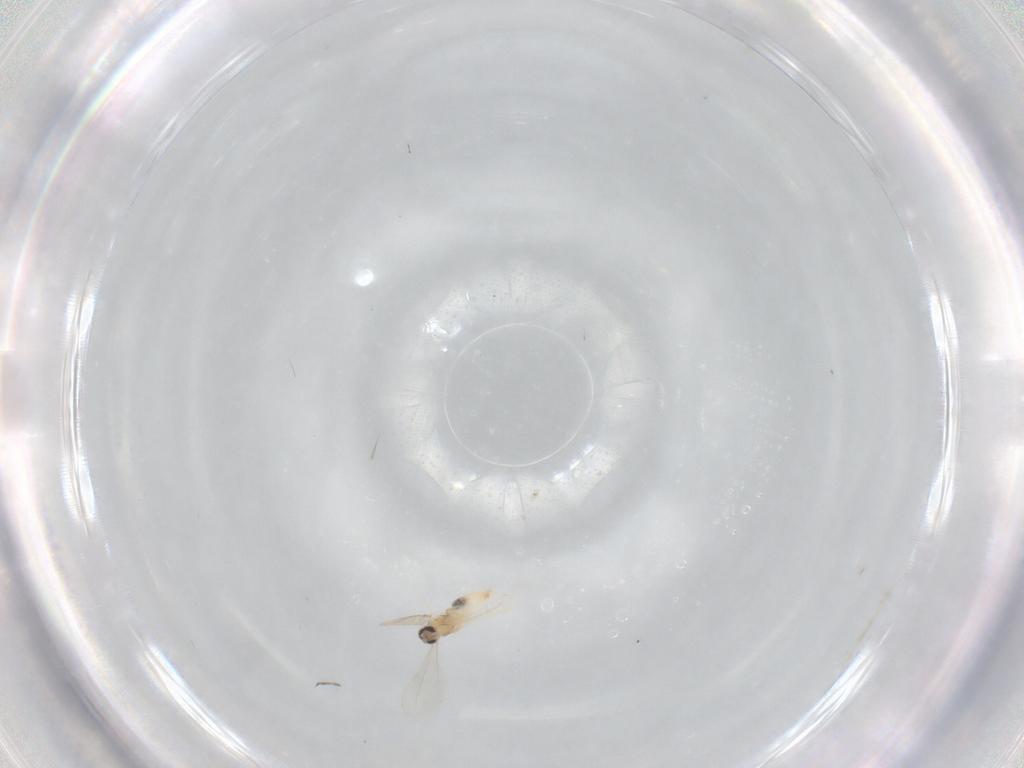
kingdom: Animalia
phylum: Arthropoda
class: Insecta
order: Diptera
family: Cecidomyiidae
